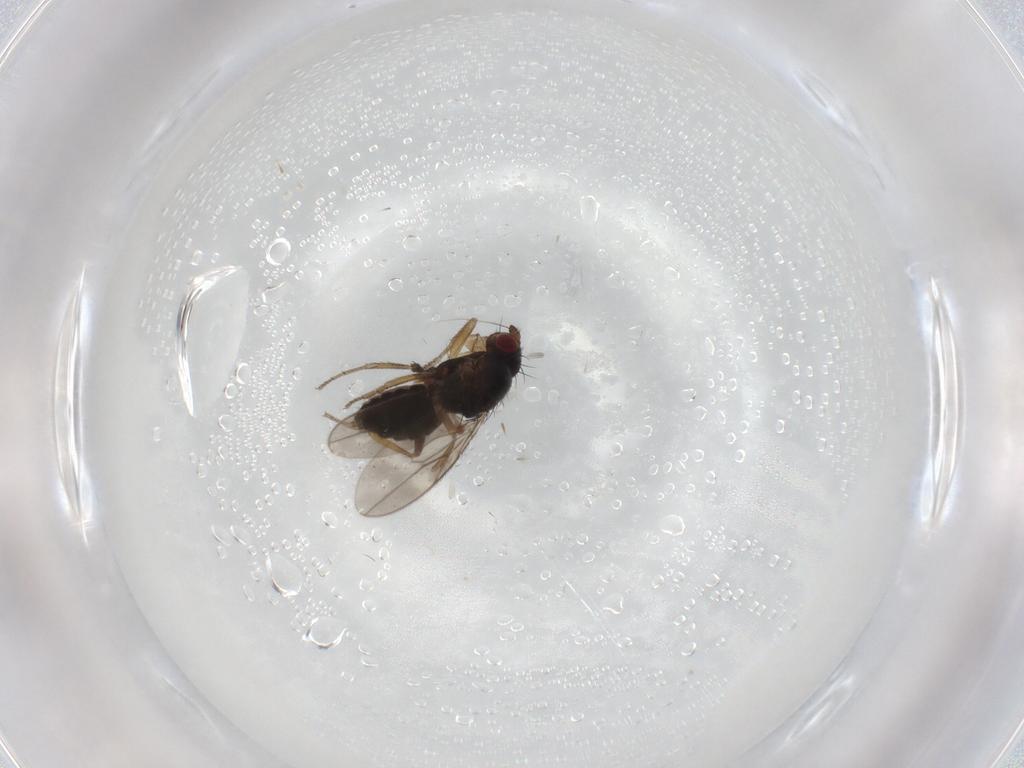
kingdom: Animalia
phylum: Arthropoda
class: Insecta
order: Diptera
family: Sphaeroceridae
